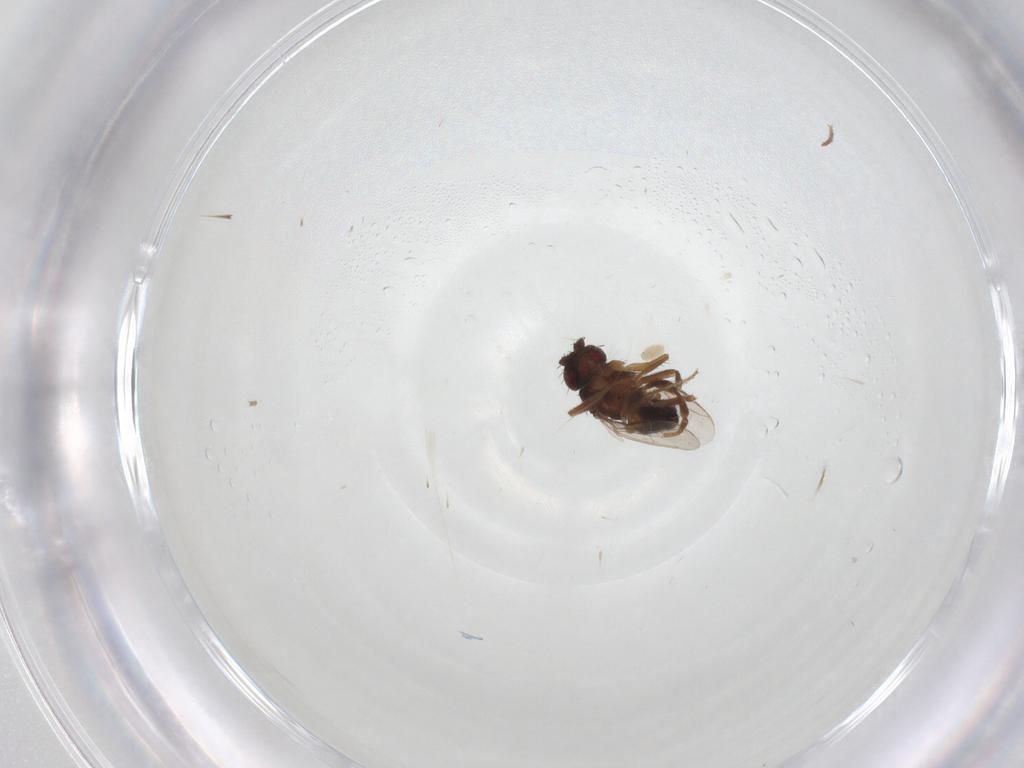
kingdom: Animalia
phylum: Arthropoda
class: Insecta
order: Diptera
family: Sphaeroceridae
